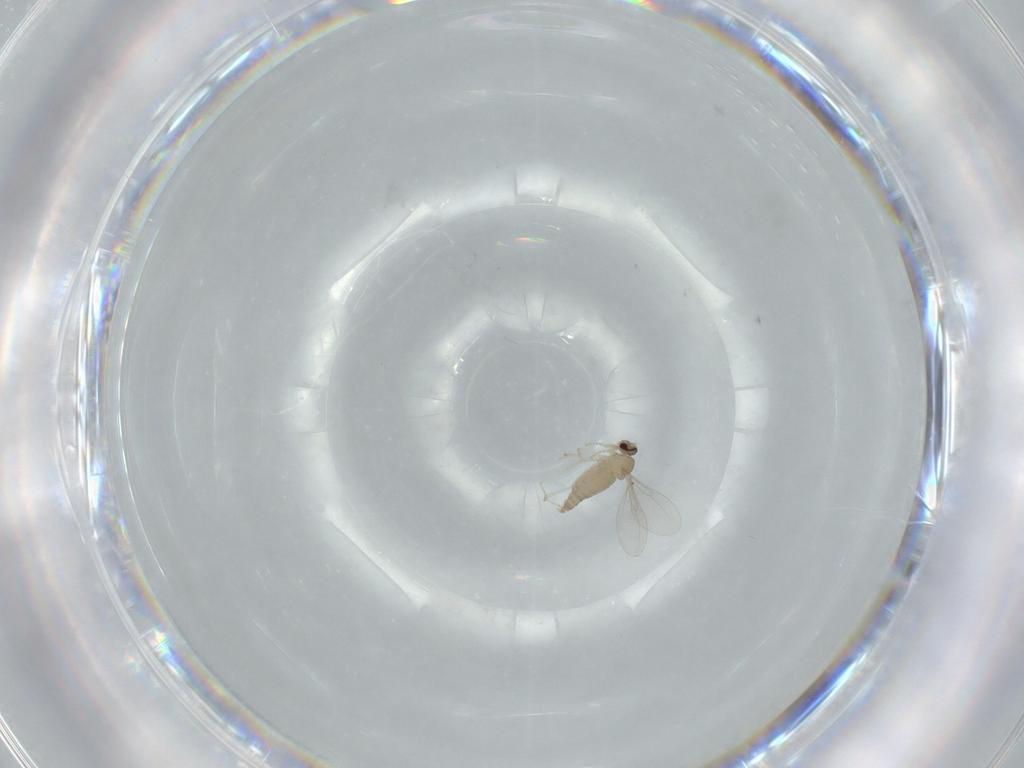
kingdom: Animalia
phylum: Arthropoda
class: Insecta
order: Diptera
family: Cecidomyiidae
